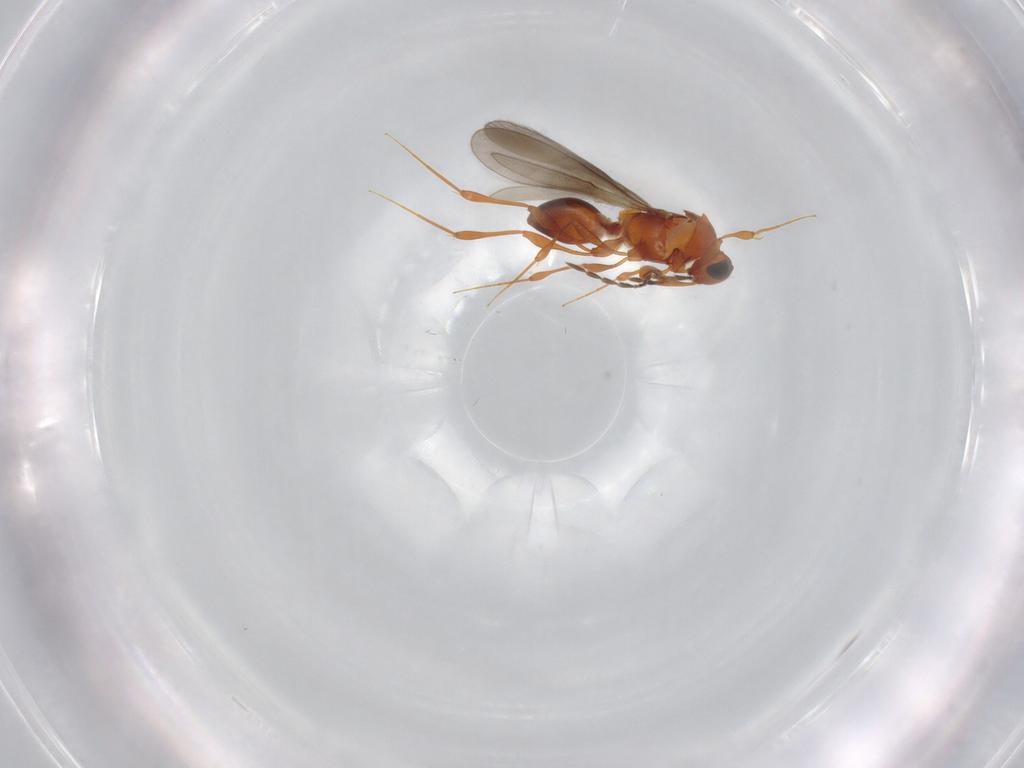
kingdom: Animalia
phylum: Arthropoda
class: Insecta
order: Hymenoptera
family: Platygastridae
